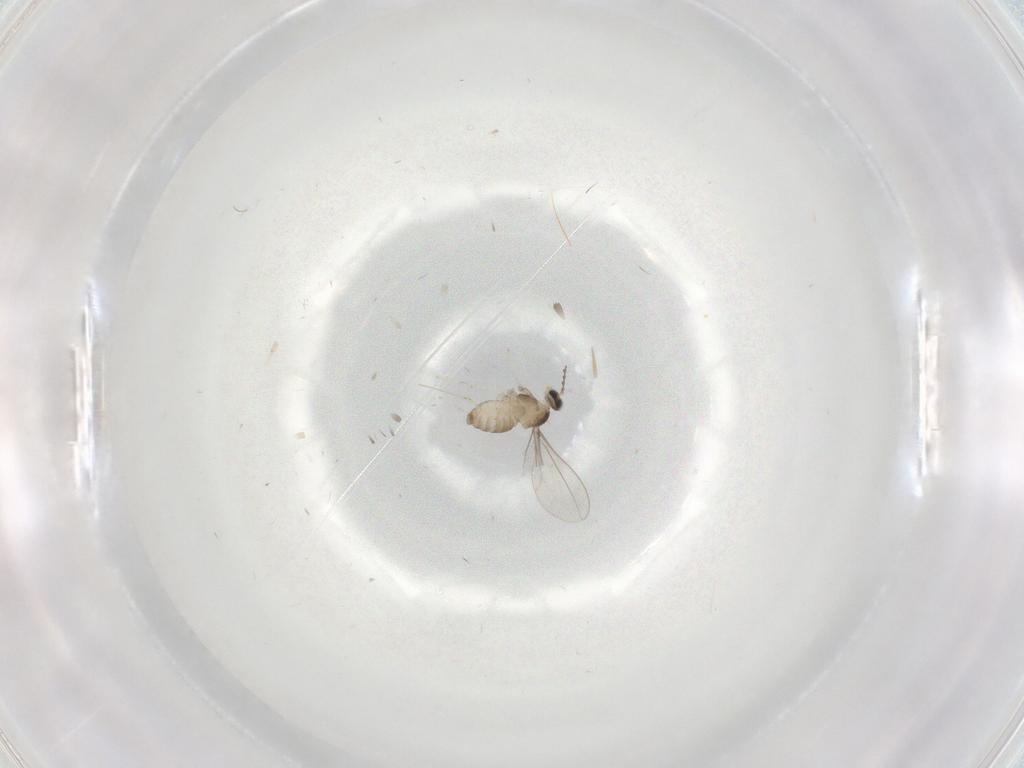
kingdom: Animalia
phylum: Arthropoda
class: Insecta
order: Diptera
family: Cecidomyiidae
